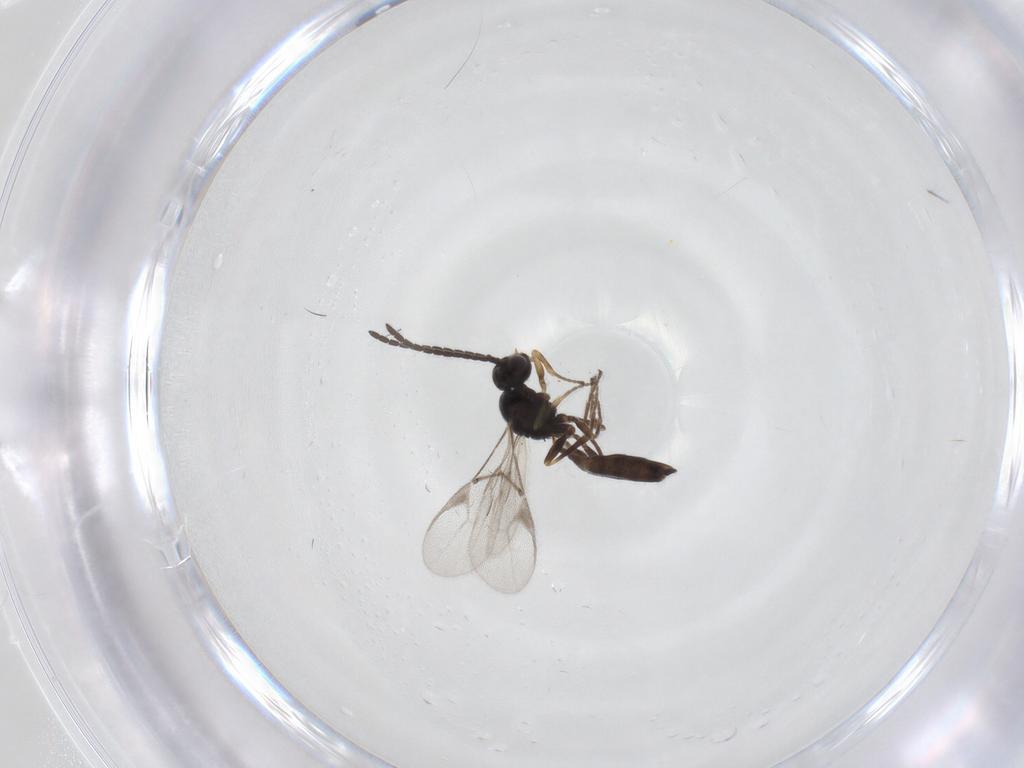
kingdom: Animalia
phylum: Arthropoda
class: Insecta
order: Hymenoptera
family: Braconidae
